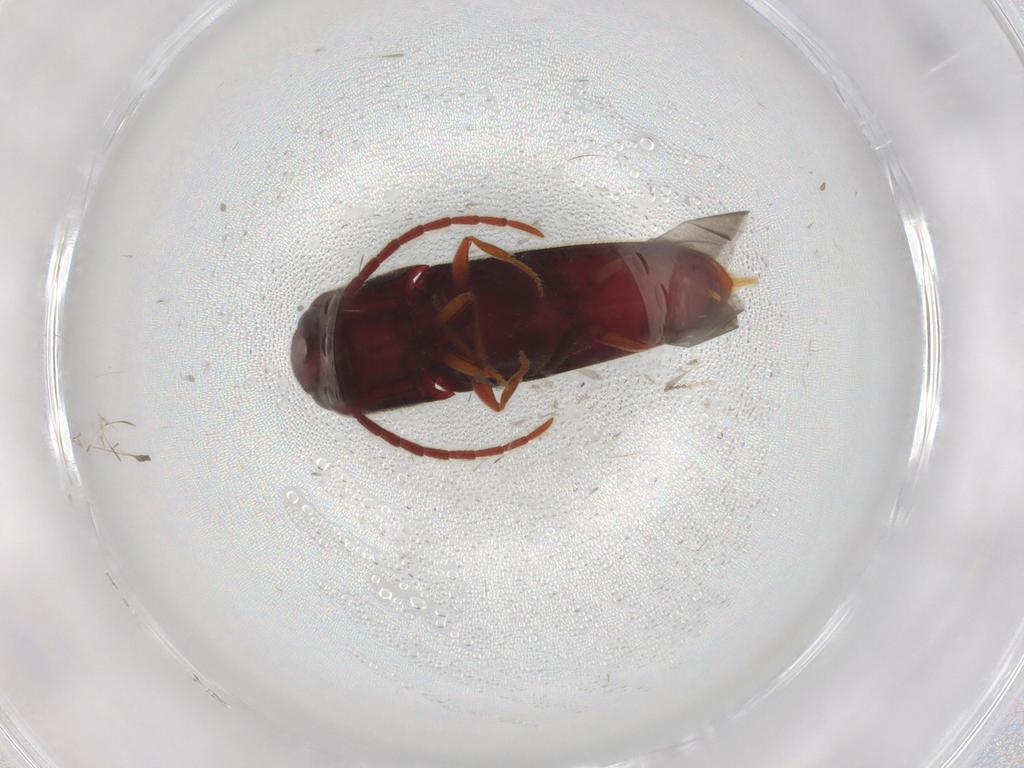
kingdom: Animalia
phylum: Arthropoda
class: Insecta
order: Coleoptera
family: Eucnemidae
